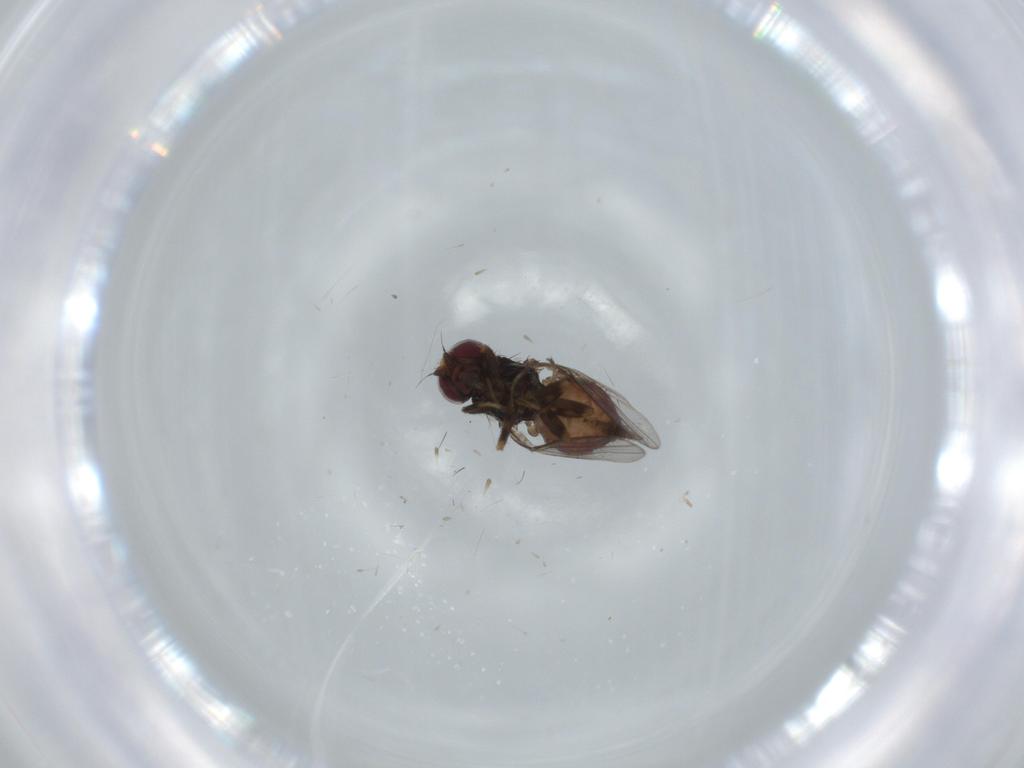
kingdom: Animalia
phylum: Arthropoda
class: Insecta
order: Diptera
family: Chloropidae
